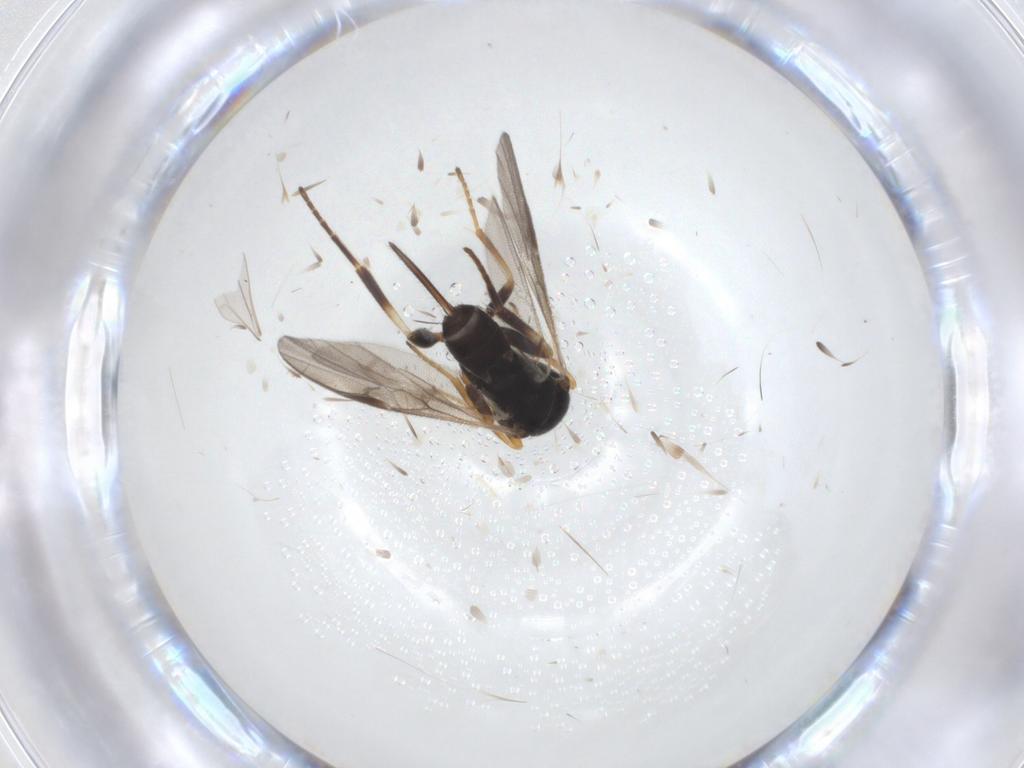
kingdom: Animalia
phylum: Arthropoda
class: Insecta
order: Hymenoptera
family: Braconidae
